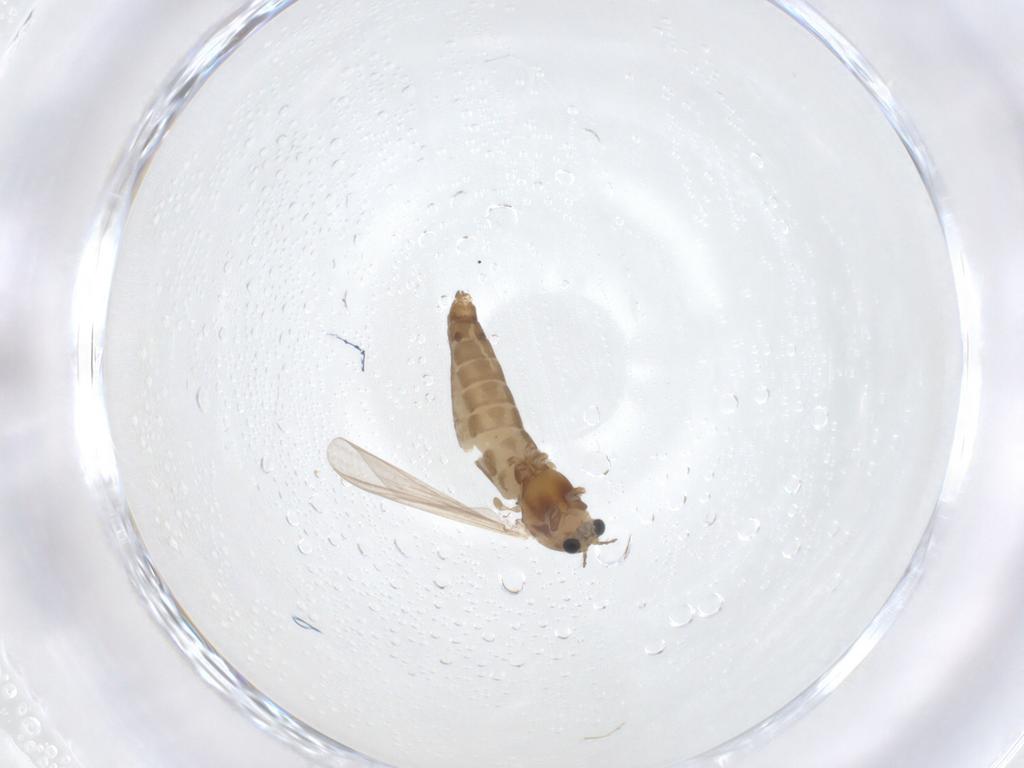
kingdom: Animalia
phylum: Arthropoda
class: Insecta
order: Diptera
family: Chironomidae
